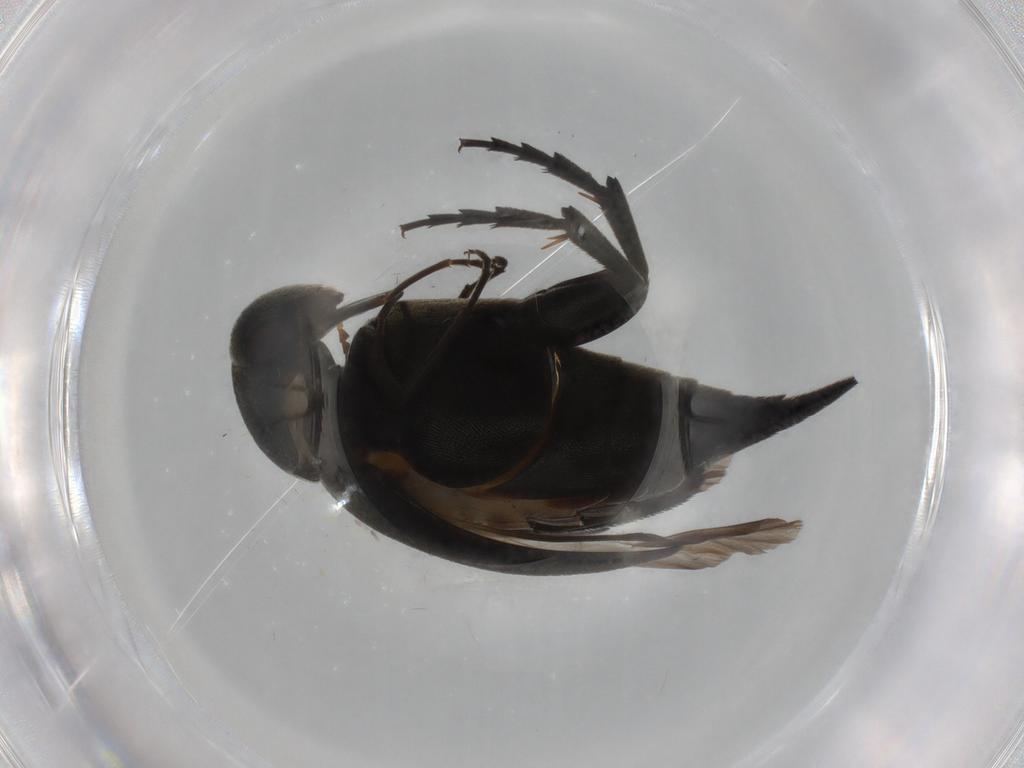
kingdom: Animalia
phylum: Arthropoda
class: Insecta
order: Coleoptera
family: Mordellidae
